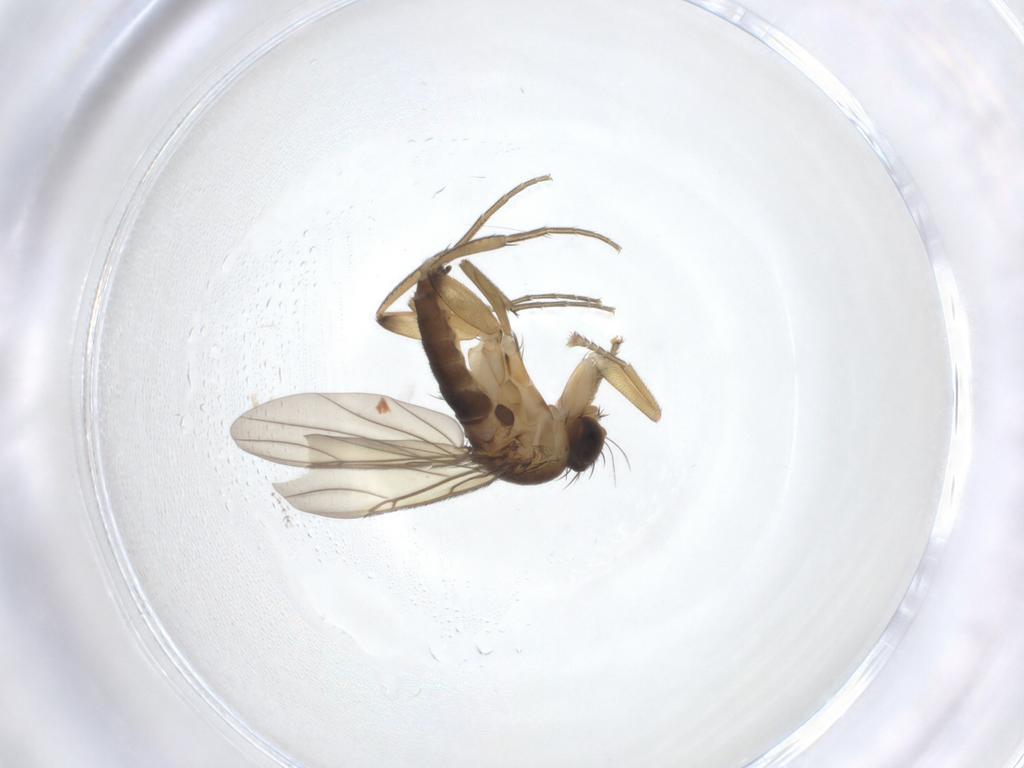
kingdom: Animalia
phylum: Arthropoda
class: Insecta
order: Diptera
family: Phoridae
